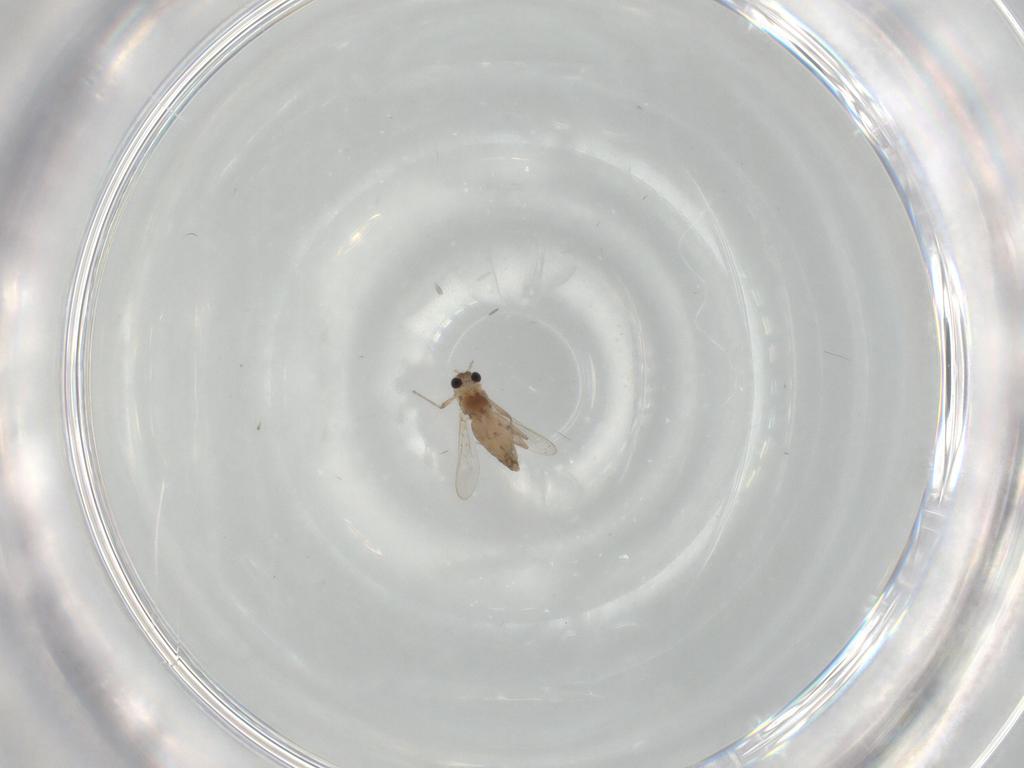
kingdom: Animalia
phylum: Arthropoda
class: Insecta
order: Diptera
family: Chironomidae
